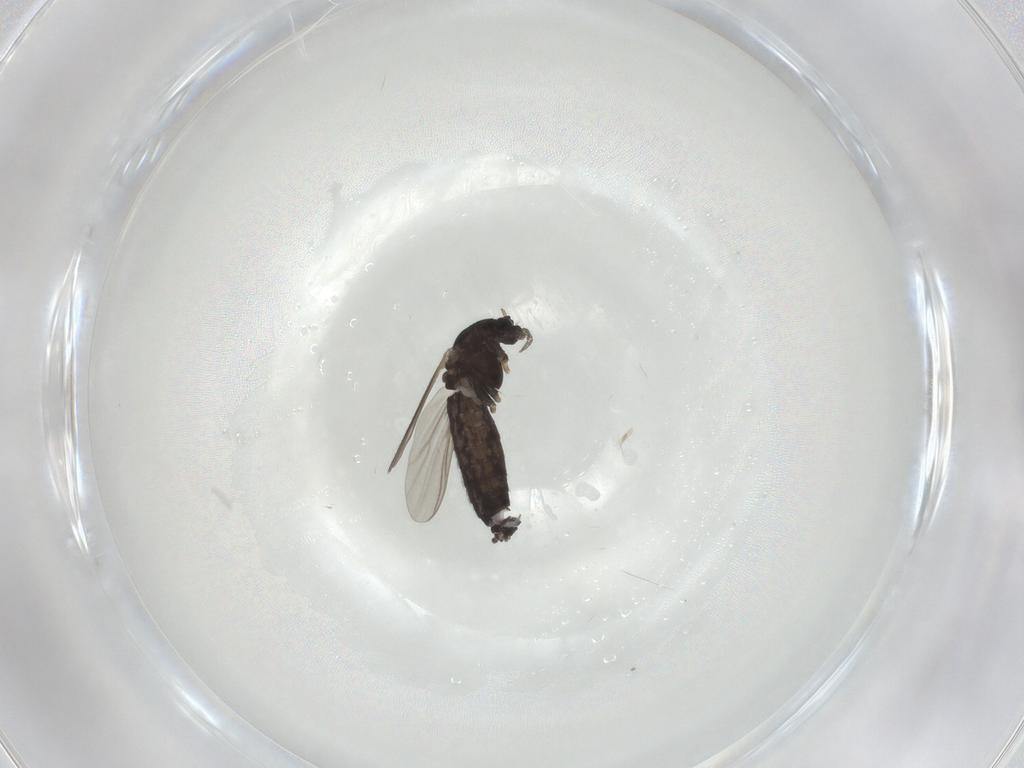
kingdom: Animalia
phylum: Arthropoda
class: Insecta
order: Diptera
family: Chironomidae
